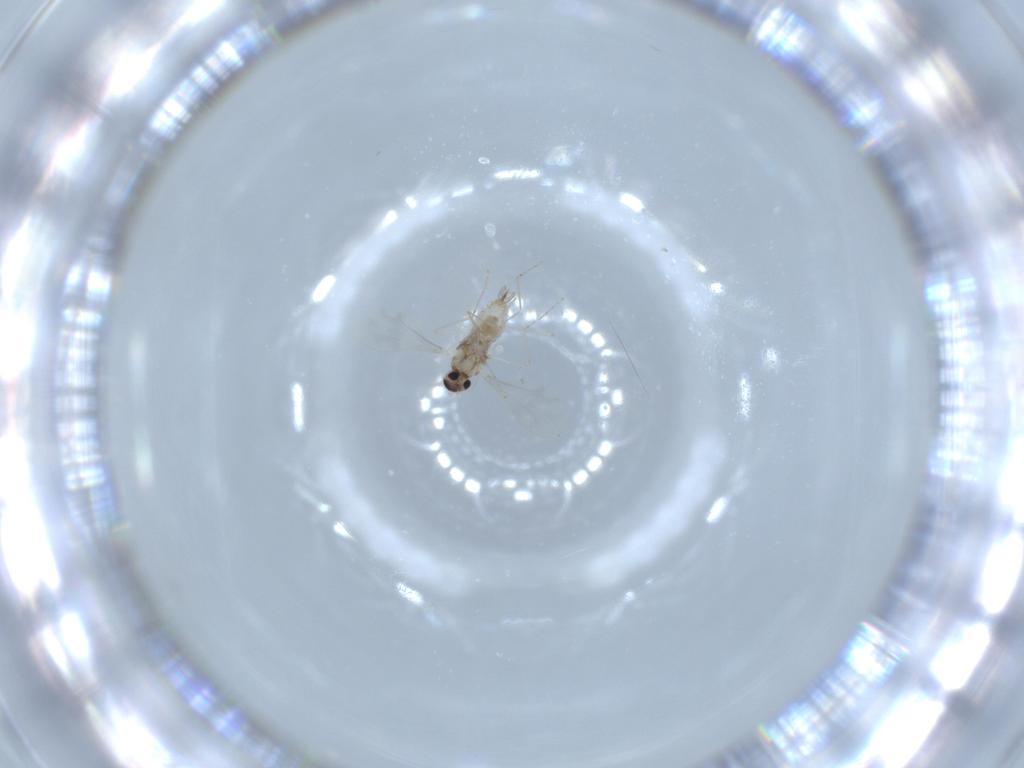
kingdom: Animalia
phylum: Arthropoda
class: Insecta
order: Diptera
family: Cecidomyiidae
